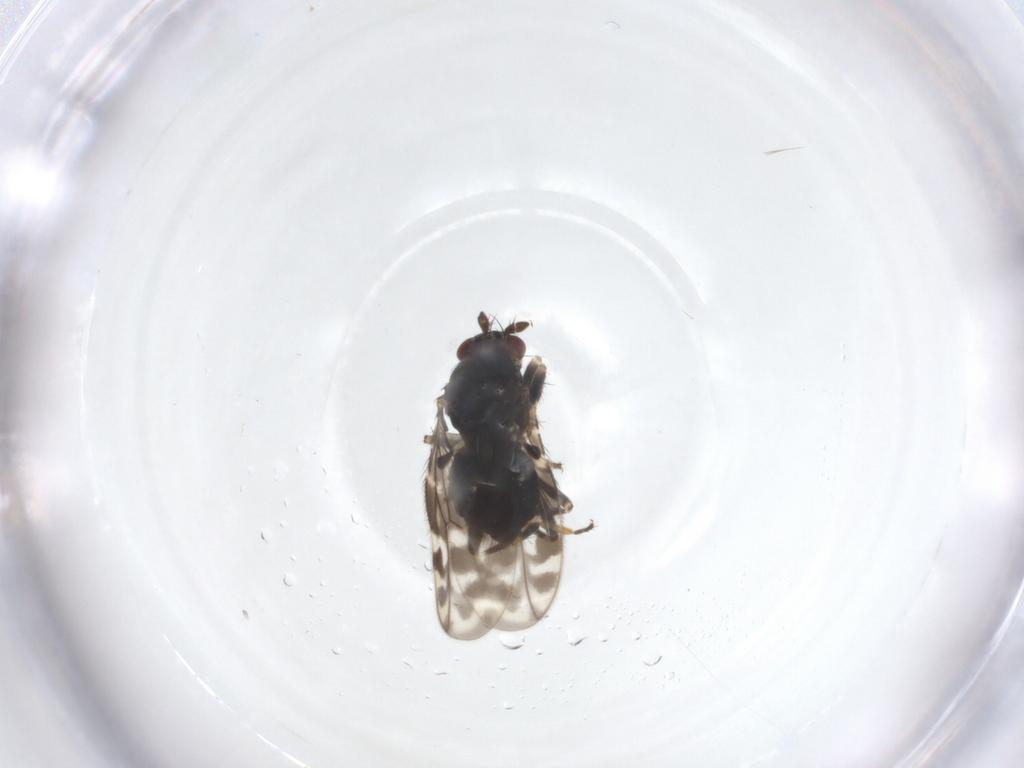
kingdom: Animalia
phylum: Arthropoda
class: Insecta
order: Diptera
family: Sphaeroceridae
